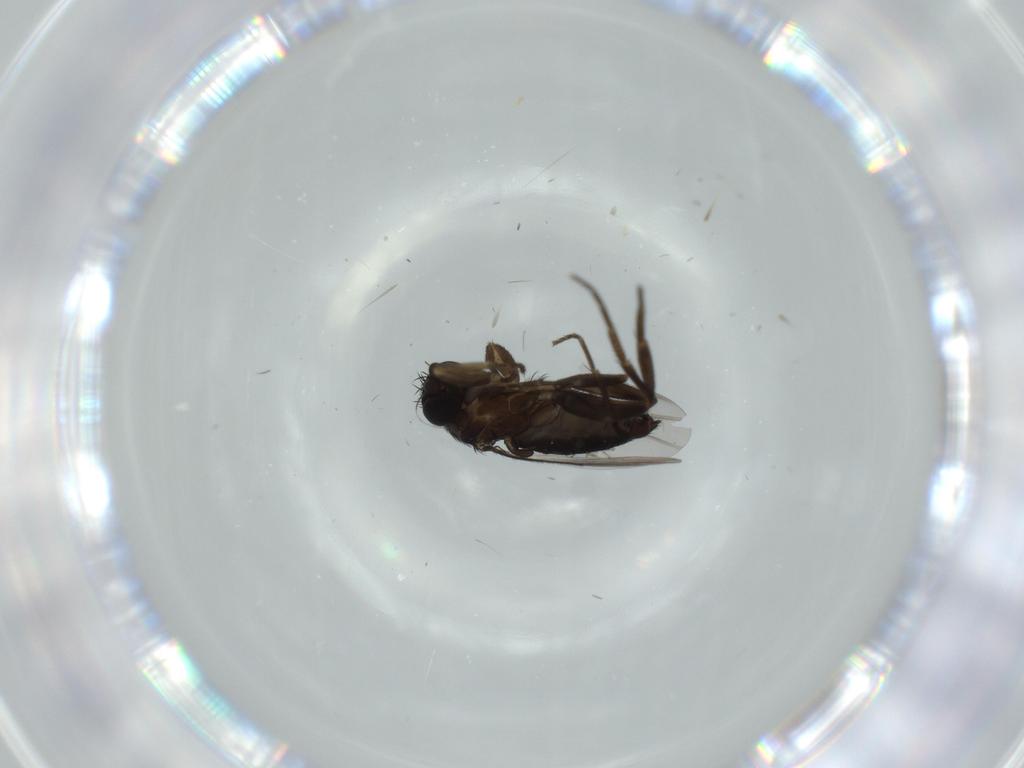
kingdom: Animalia
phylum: Arthropoda
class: Insecta
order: Diptera
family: Phoridae
